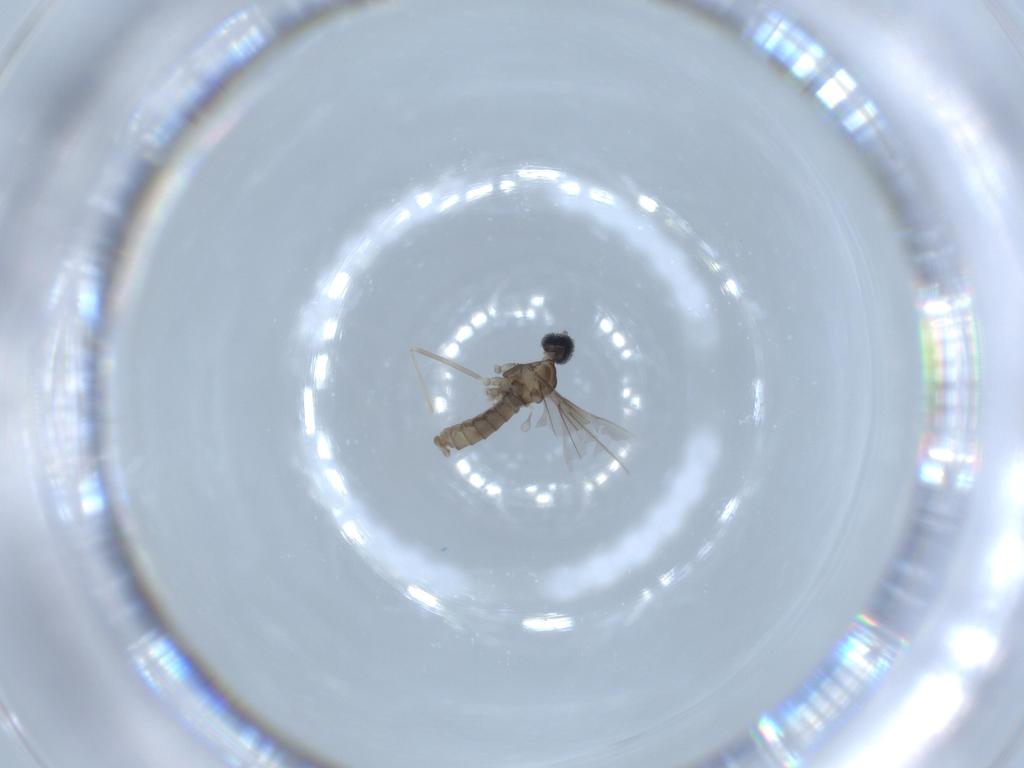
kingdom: Animalia
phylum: Arthropoda
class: Insecta
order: Diptera
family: Cecidomyiidae
